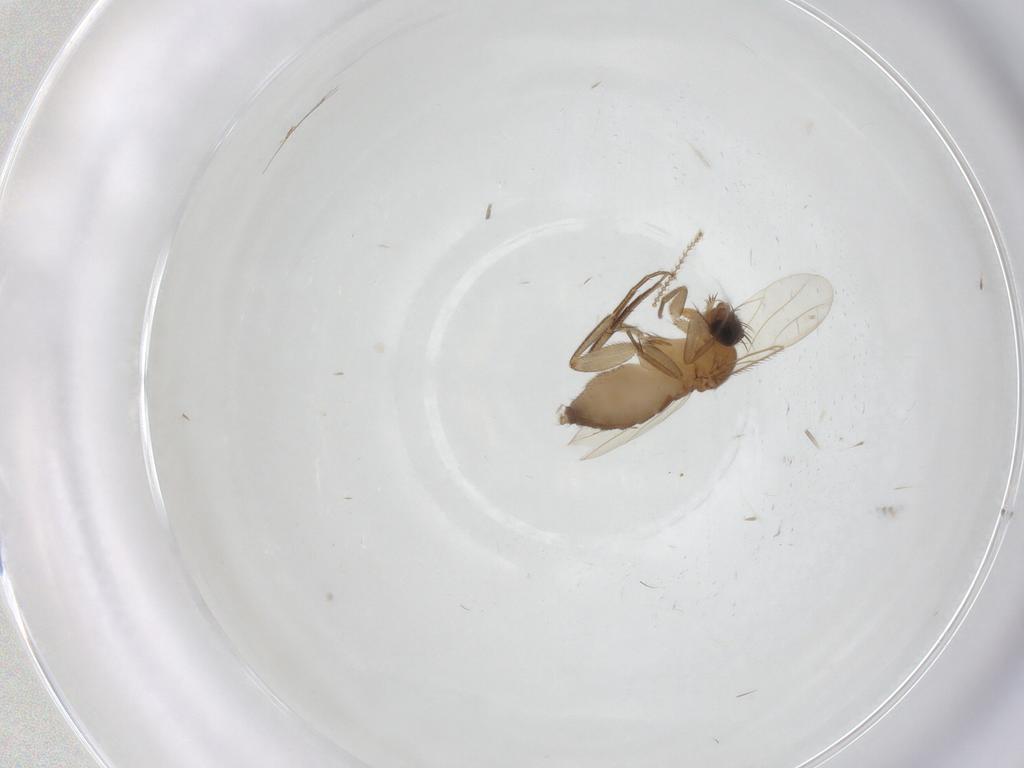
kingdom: Animalia
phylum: Arthropoda
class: Insecta
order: Diptera
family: Phoridae
